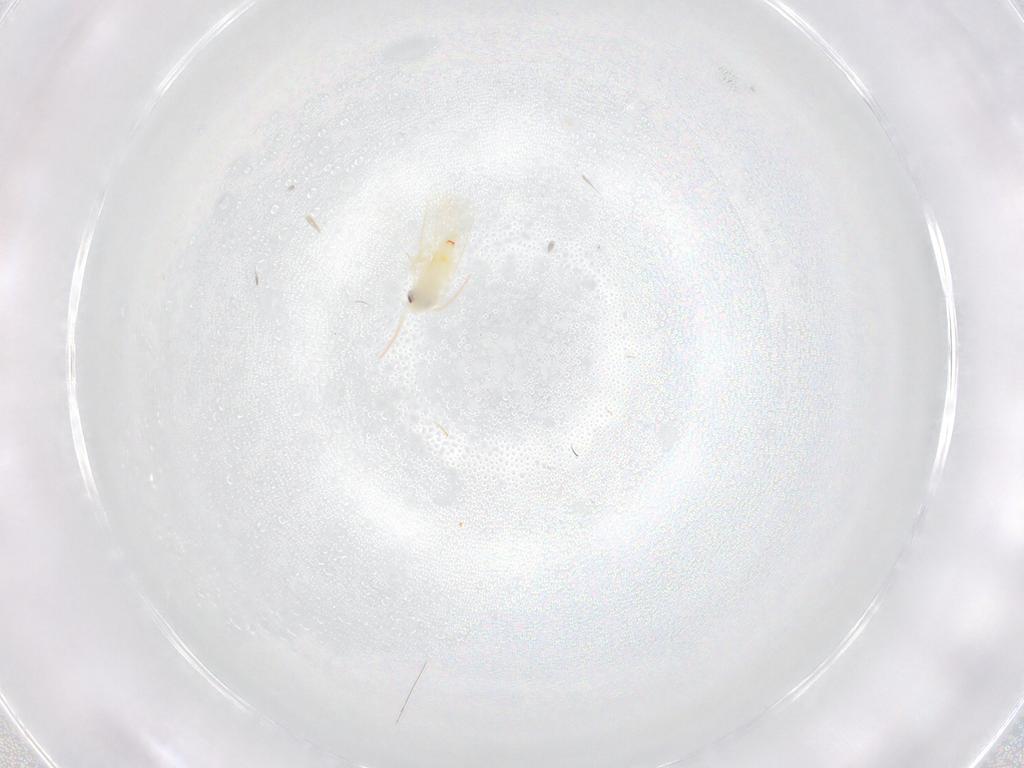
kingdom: Animalia
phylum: Arthropoda
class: Insecta
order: Hemiptera
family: Aleyrodidae
